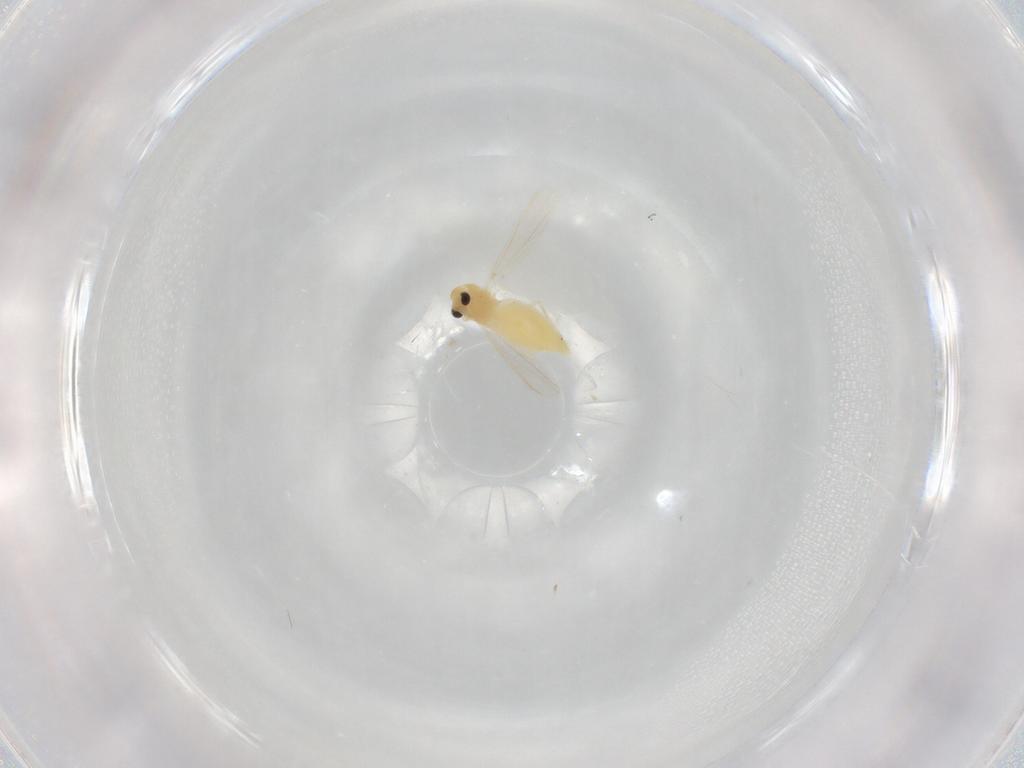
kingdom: Animalia
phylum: Arthropoda
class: Insecta
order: Diptera
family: Chironomidae
